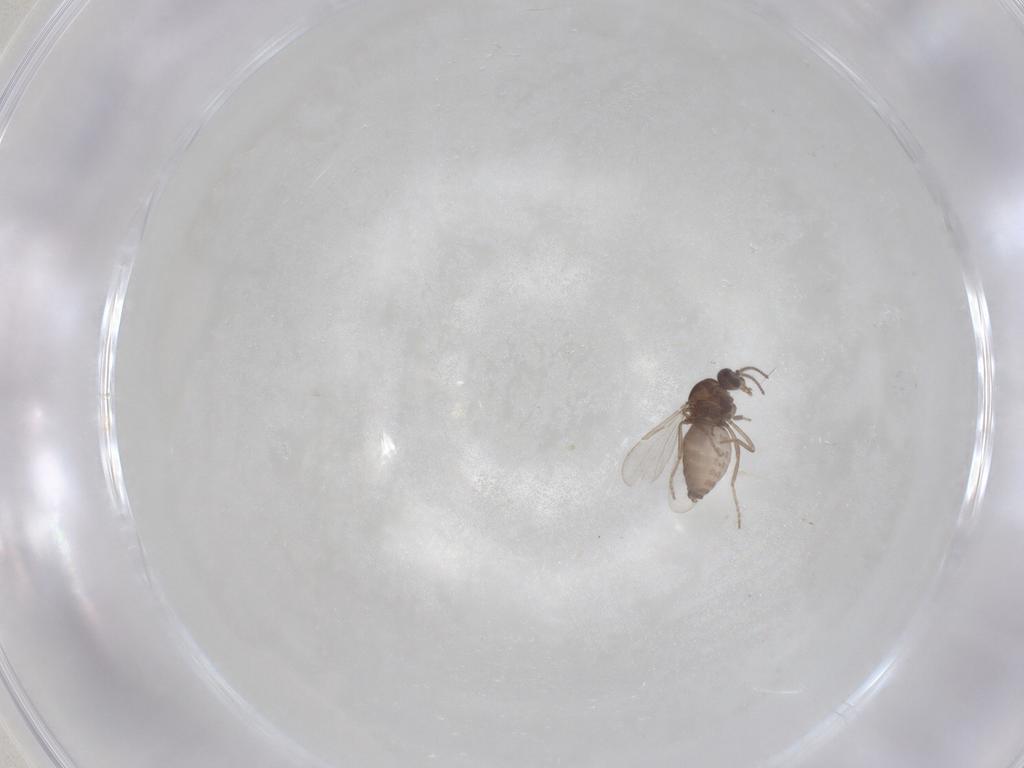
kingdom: Animalia
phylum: Arthropoda
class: Insecta
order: Diptera
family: Ceratopogonidae
